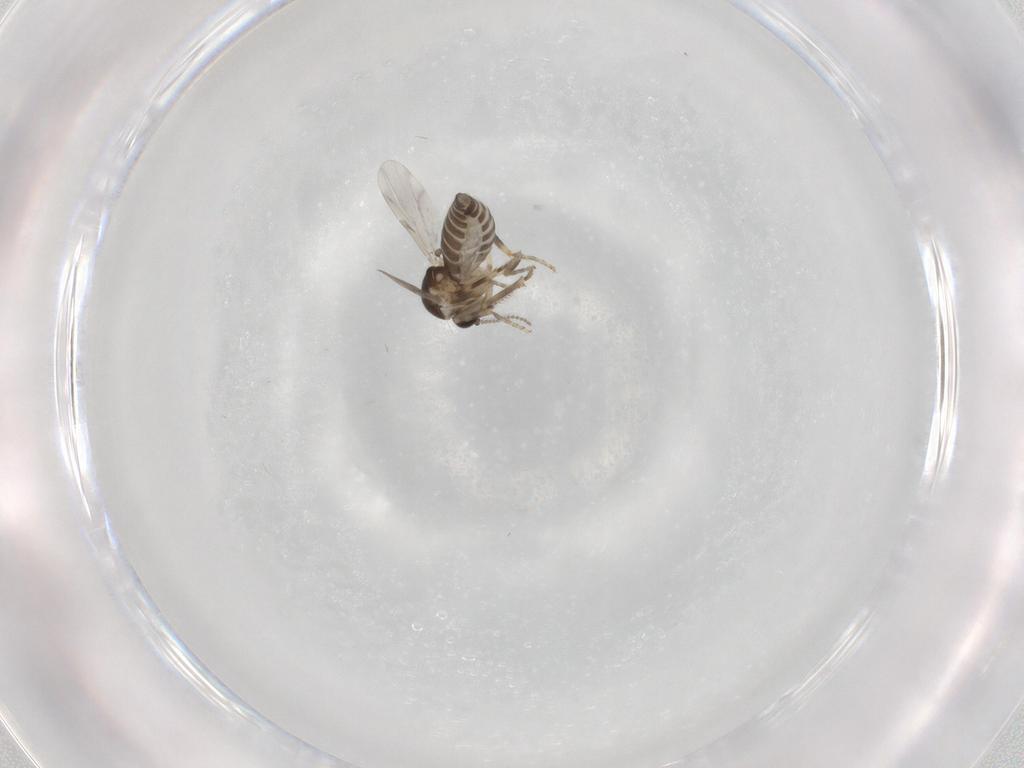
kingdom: Animalia
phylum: Arthropoda
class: Insecta
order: Diptera
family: Ceratopogonidae
